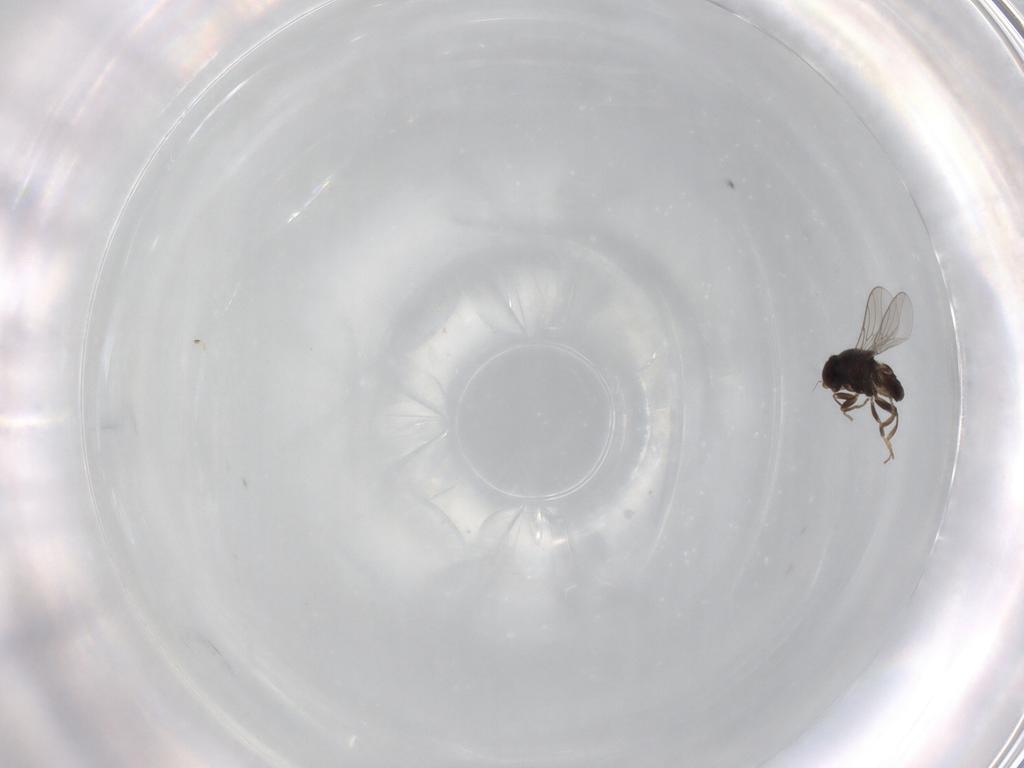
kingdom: Animalia
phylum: Arthropoda
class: Insecta
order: Diptera
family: Chloropidae
